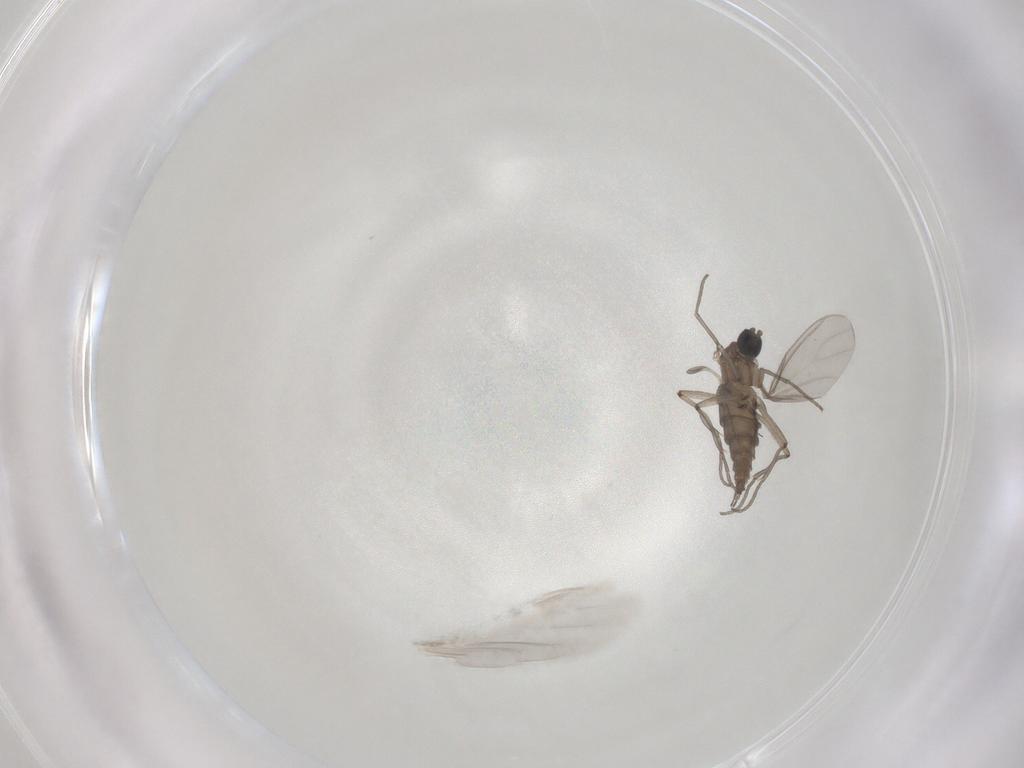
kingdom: Animalia
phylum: Arthropoda
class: Insecta
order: Diptera
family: Sciaridae
